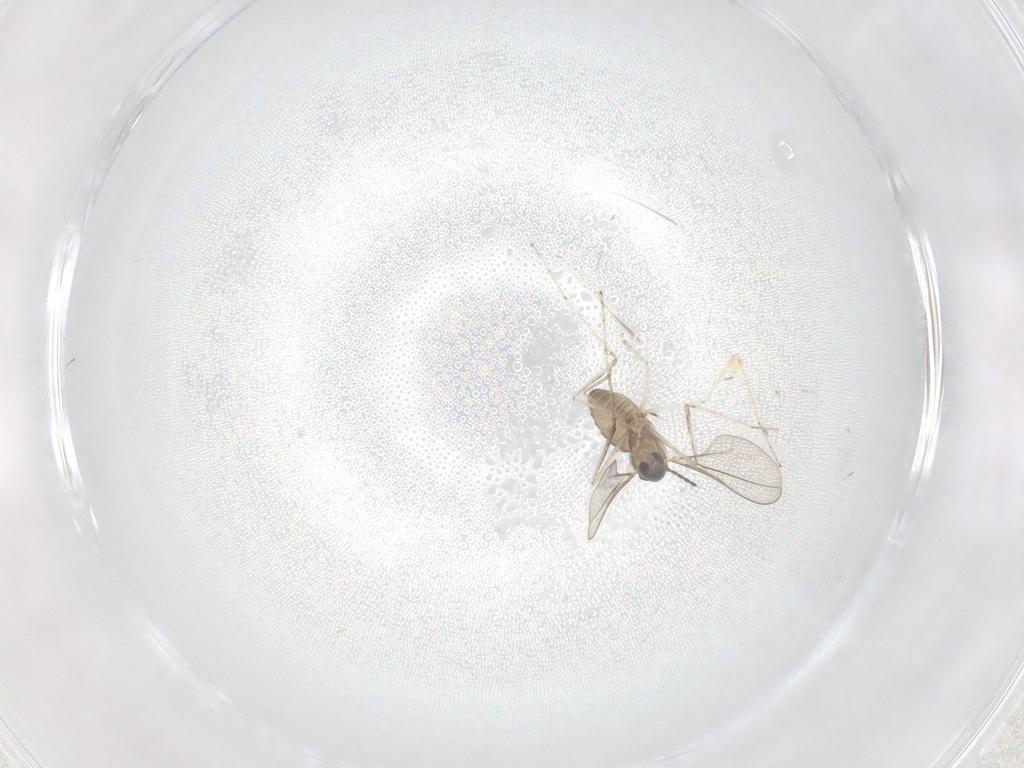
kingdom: Animalia
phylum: Arthropoda
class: Insecta
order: Diptera
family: Cecidomyiidae
